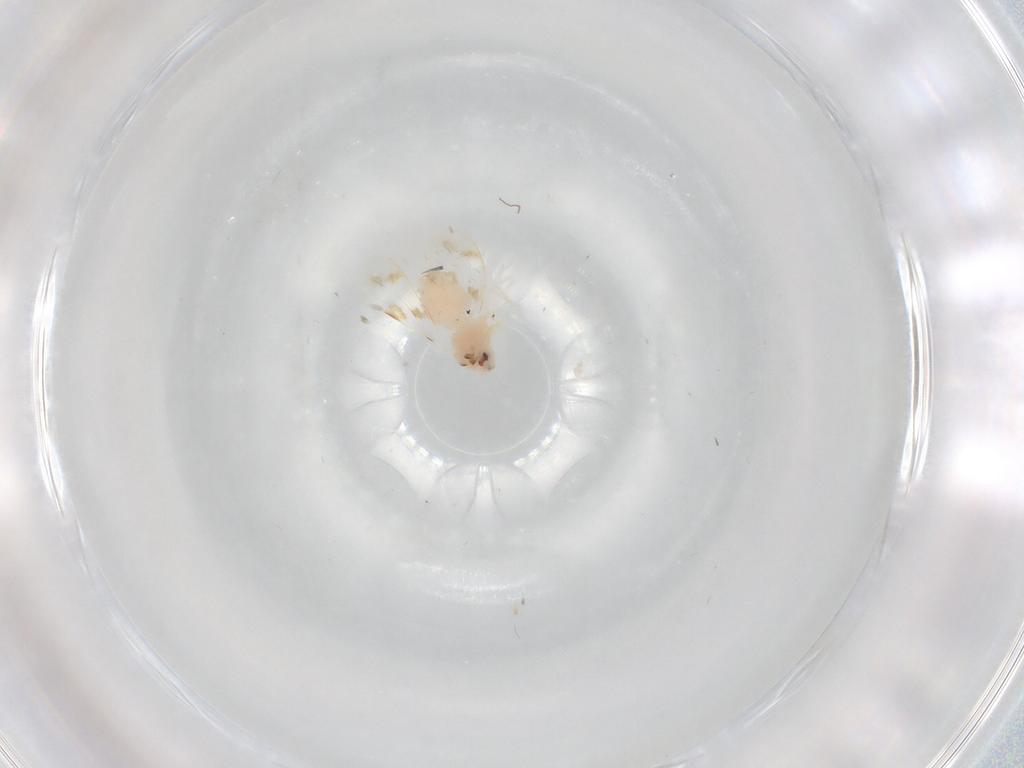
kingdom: Animalia
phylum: Arthropoda
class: Insecta
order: Hemiptera
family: Aleyrodidae
